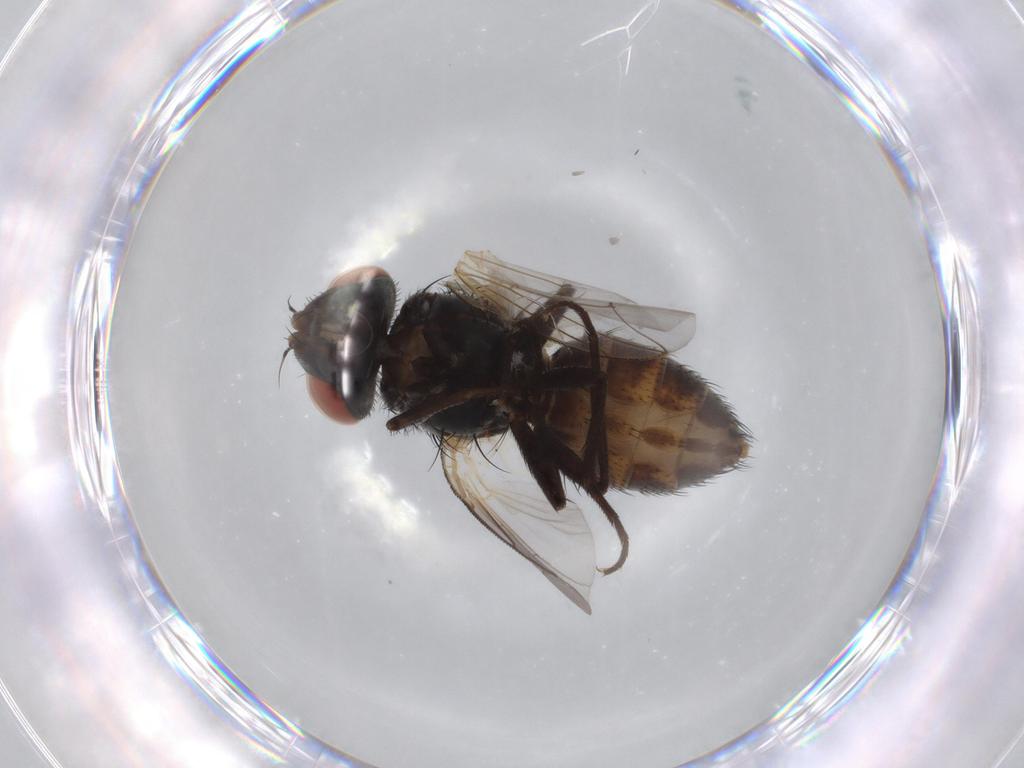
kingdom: Animalia
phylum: Arthropoda
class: Insecta
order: Diptera
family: Sarcophagidae
